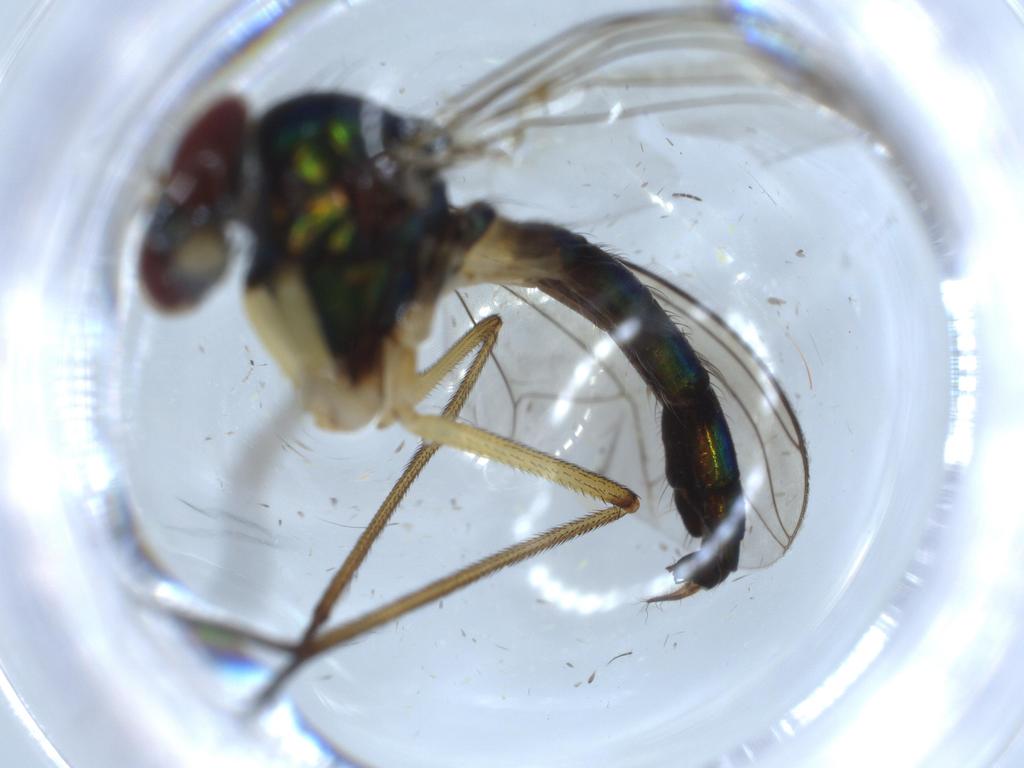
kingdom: Animalia
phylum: Arthropoda
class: Insecta
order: Diptera
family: Dolichopodidae
